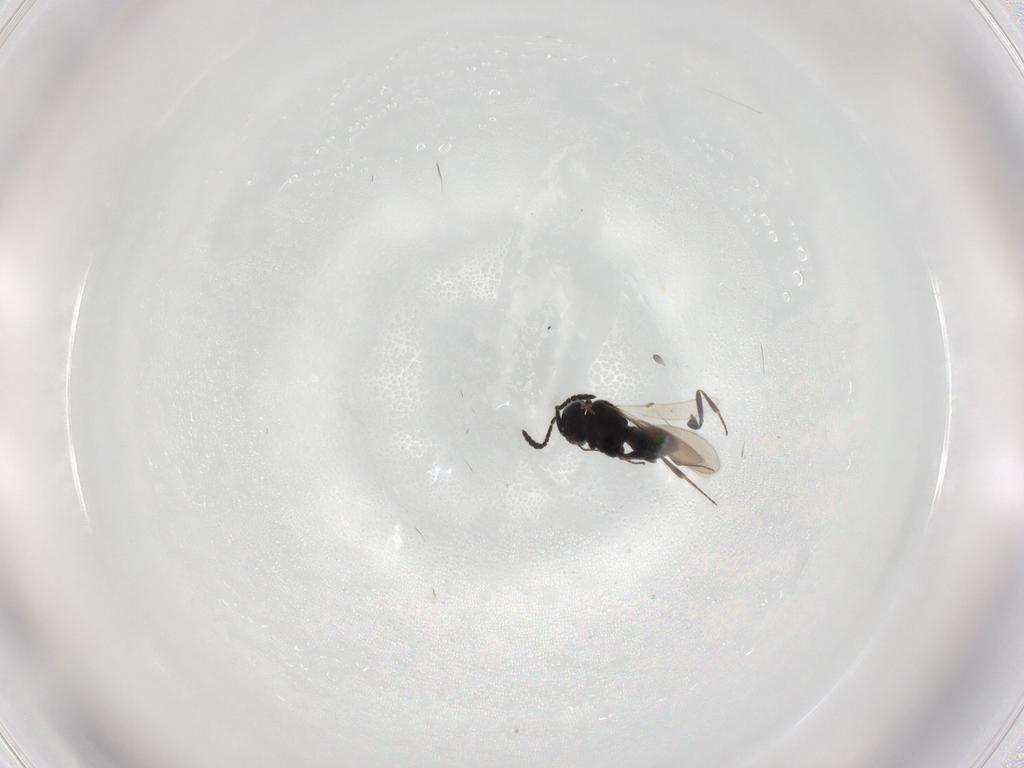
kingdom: Animalia
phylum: Arthropoda
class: Insecta
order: Hymenoptera
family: Scelionidae
